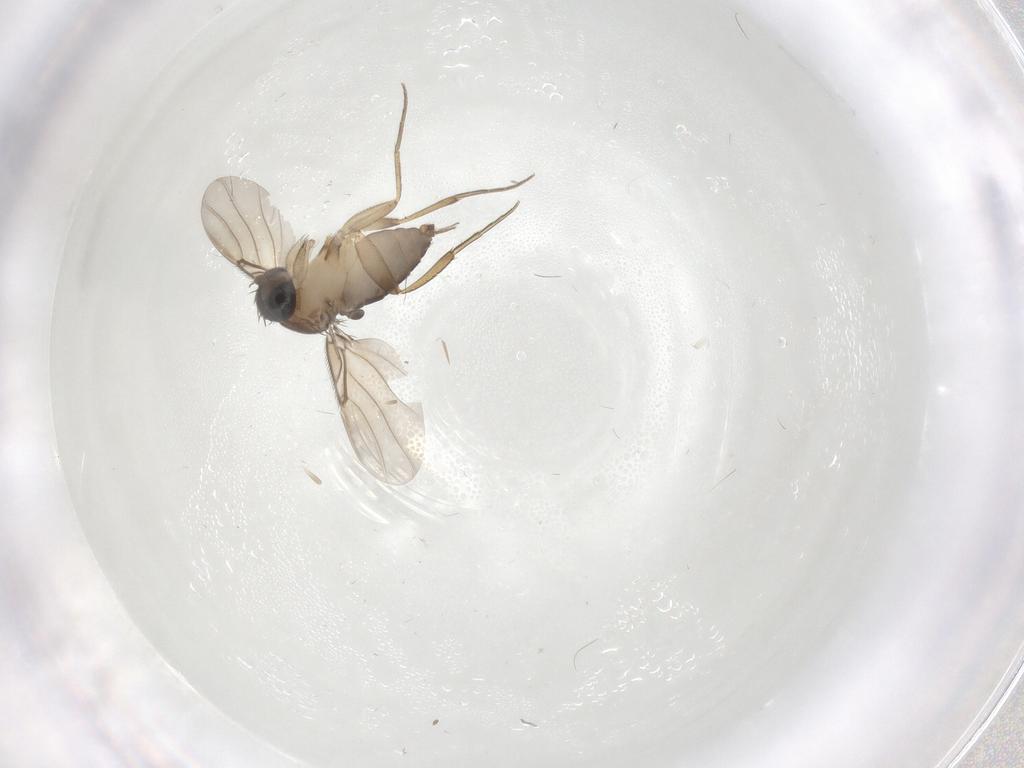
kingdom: Animalia
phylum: Arthropoda
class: Insecta
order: Diptera
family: Phoridae
